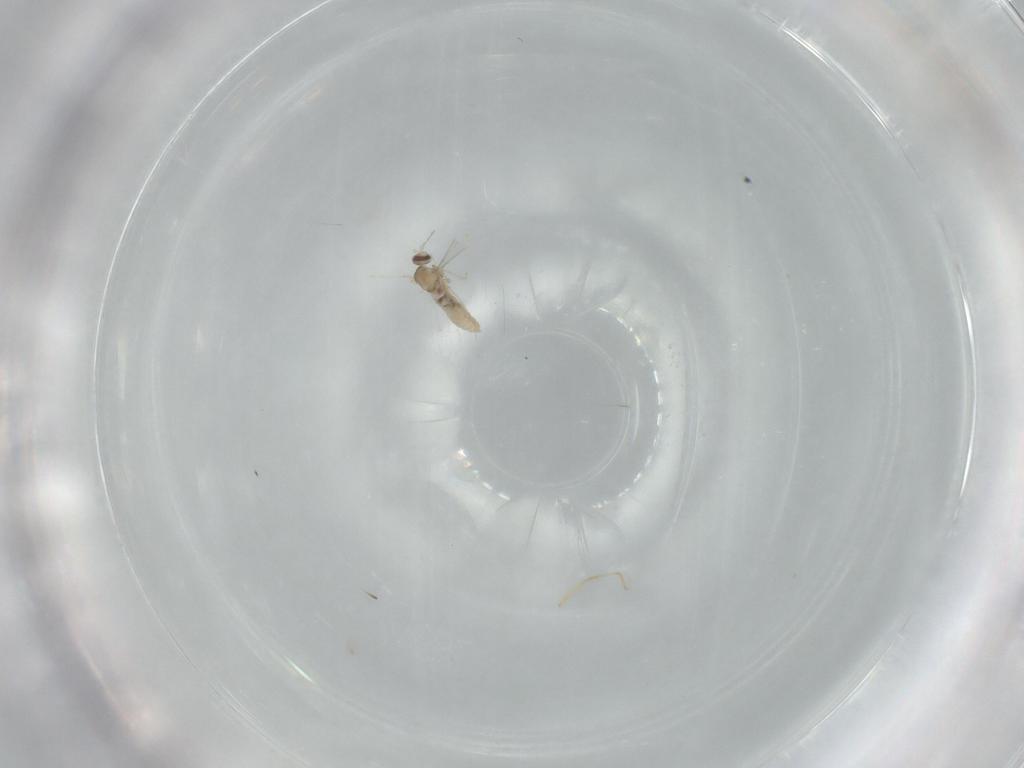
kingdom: Animalia
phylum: Arthropoda
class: Insecta
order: Diptera
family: Cecidomyiidae
